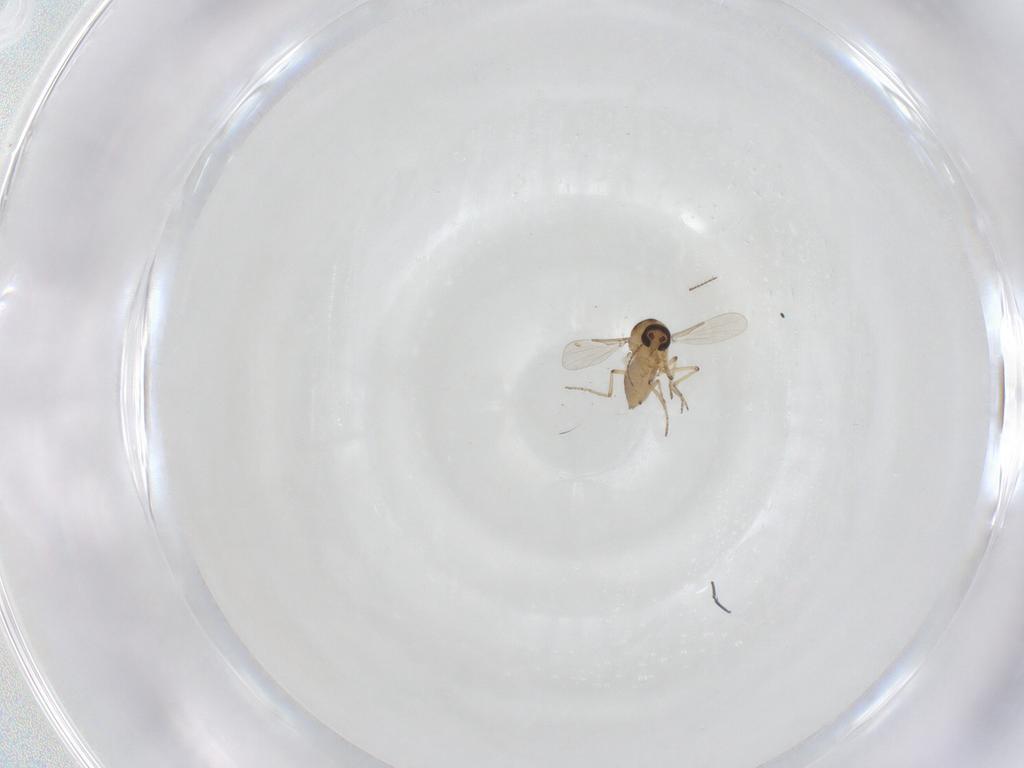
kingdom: Animalia
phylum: Arthropoda
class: Insecta
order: Diptera
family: Ceratopogonidae
